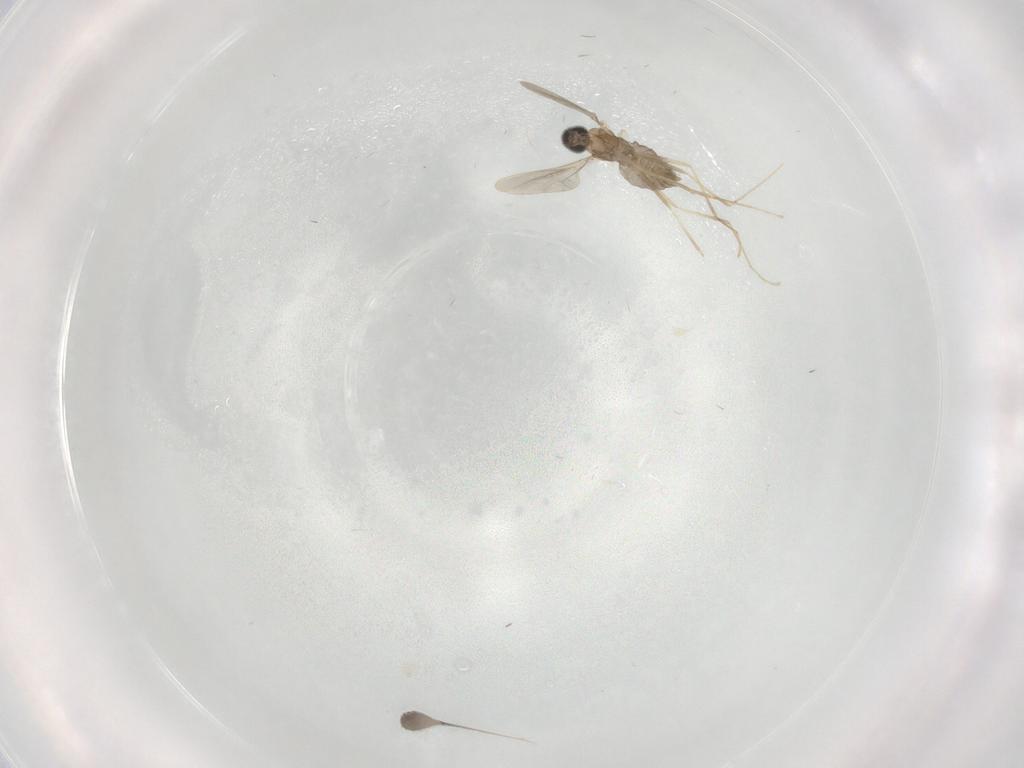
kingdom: Animalia
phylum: Arthropoda
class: Insecta
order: Diptera
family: Cecidomyiidae
